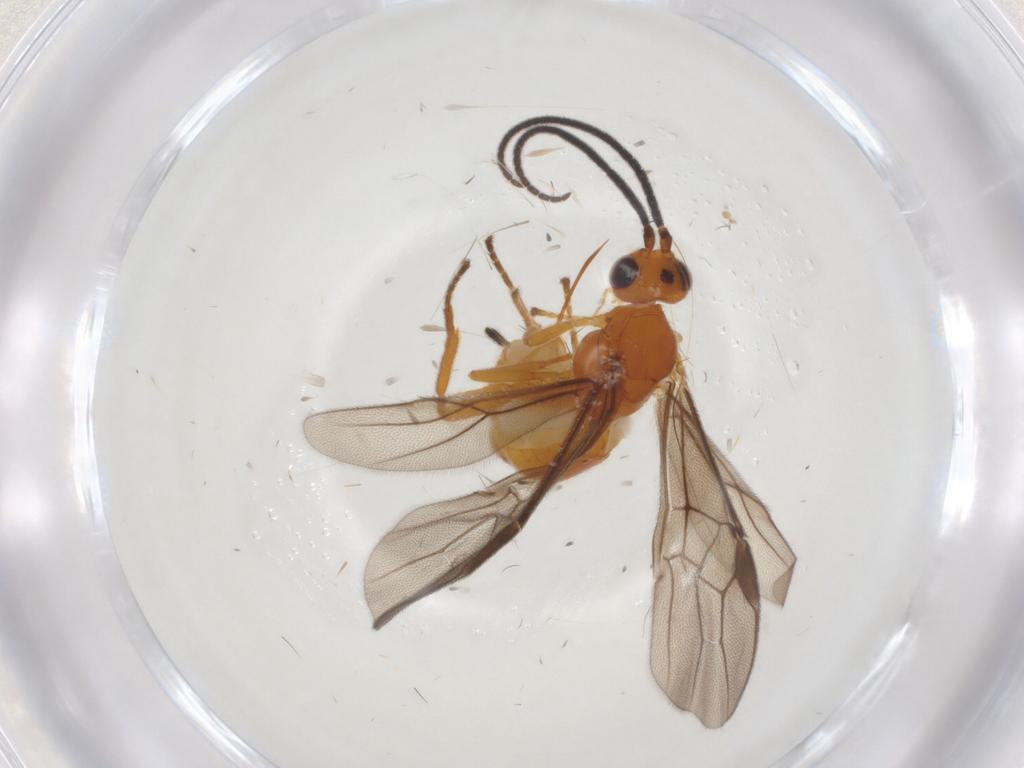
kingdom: Animalia
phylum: Arthropoda
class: Insecta
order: Hymenoptera
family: Braconidae
